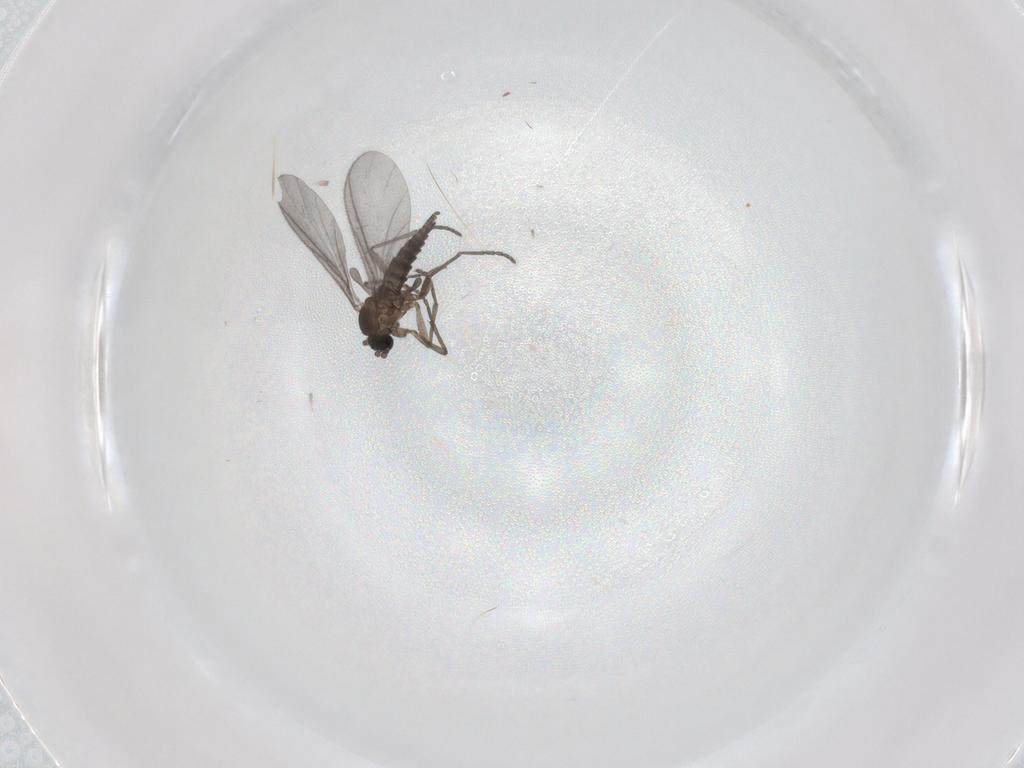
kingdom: Animalia
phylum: Arthropoda
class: Insecta
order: Diptera
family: Sciaridae
